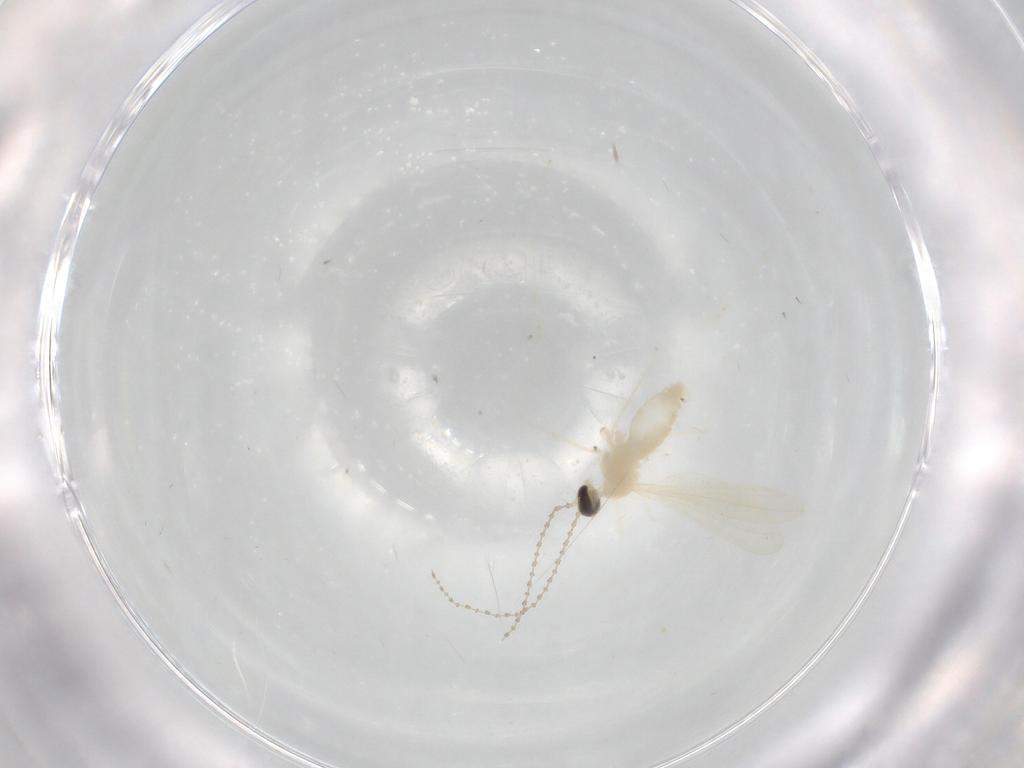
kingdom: Animalia
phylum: Arthropoda
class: Insecta
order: Diptera
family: Cecidomyiidae
